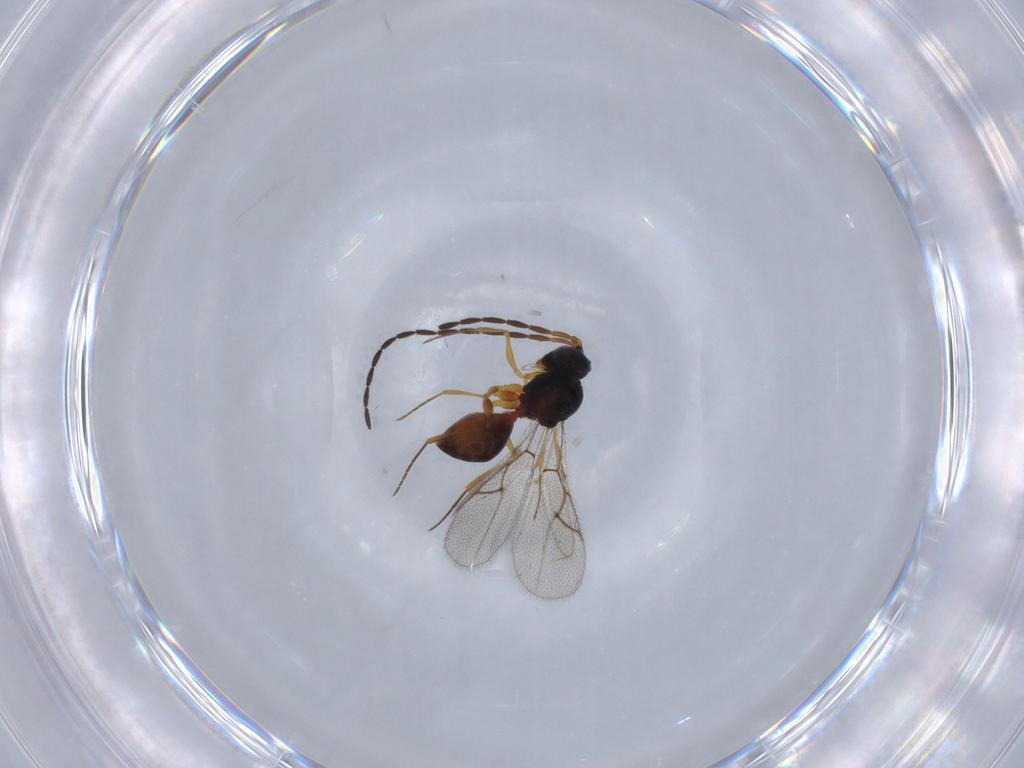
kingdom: Animalia
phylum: Arthropoda
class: Insecta
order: Hymenoptera
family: Figitidae
